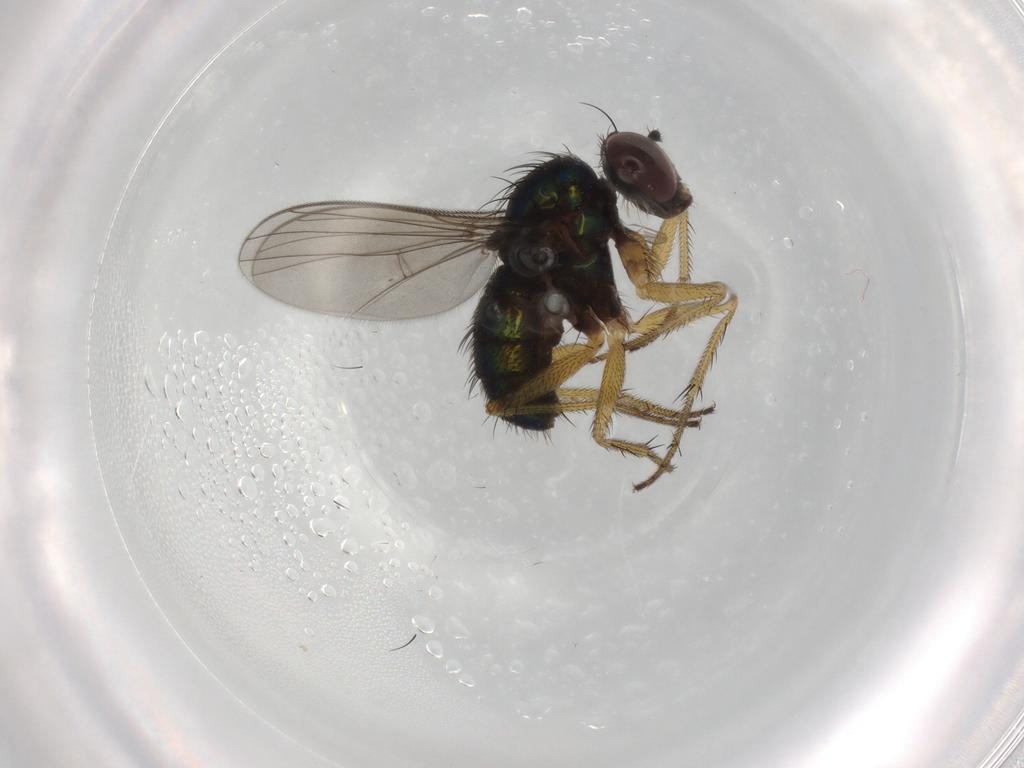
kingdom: Animalia
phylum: Arthropoda
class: Insecta
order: Diptera
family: Dolichopodidae
